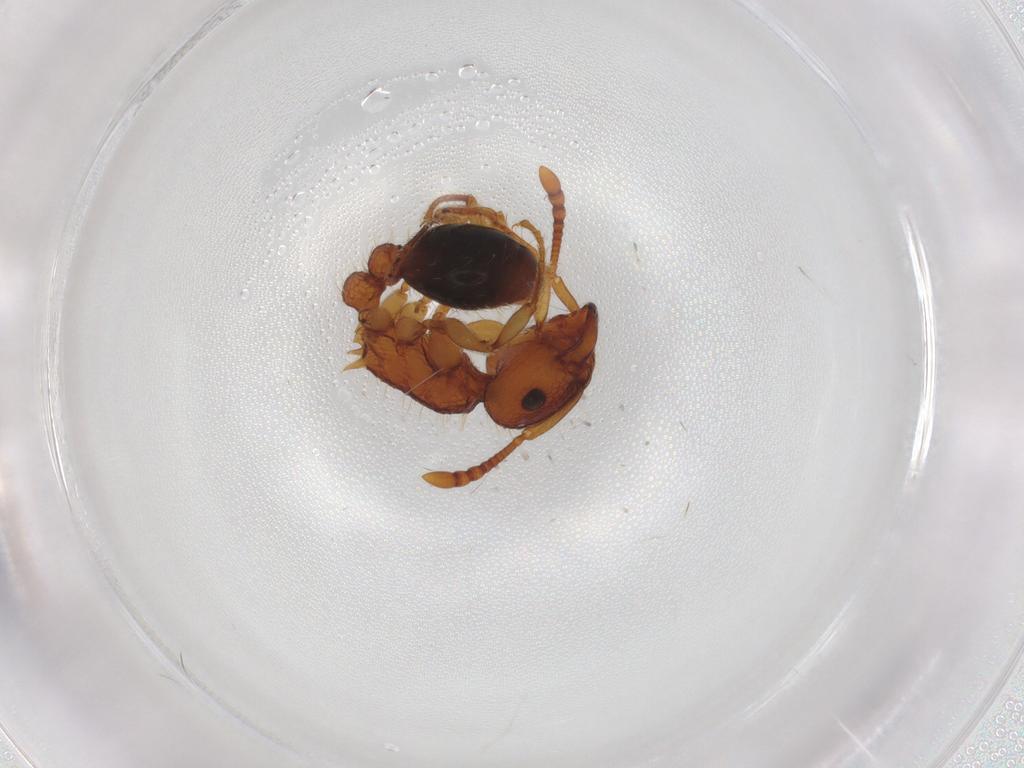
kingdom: Animalia
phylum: Arthropoda
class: Insecta
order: Hymenoptera
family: Formicidae
